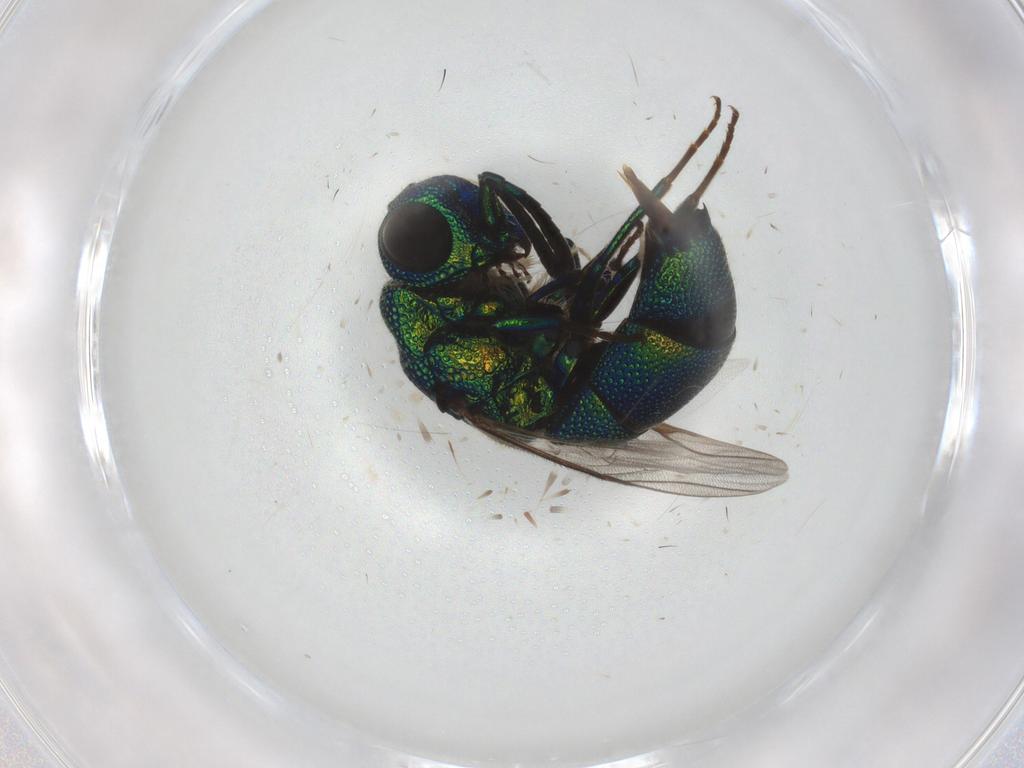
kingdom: Animalia
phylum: Arthropoda
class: Insecta
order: Hymenoptera
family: Chrysididae
